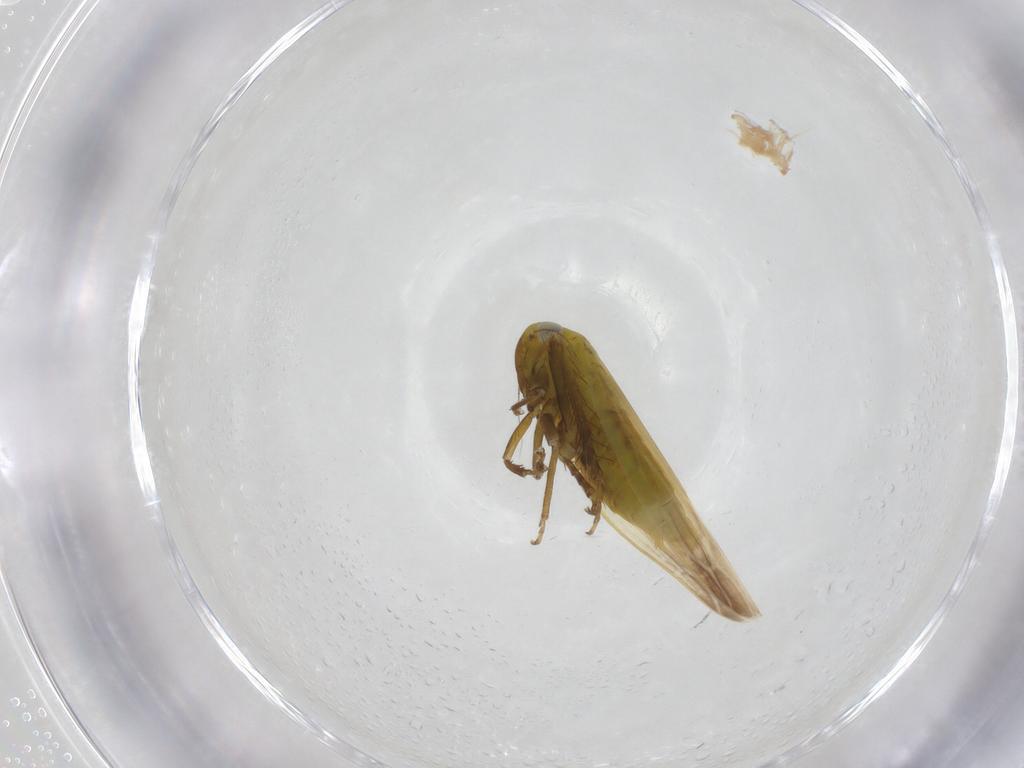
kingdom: Animalia
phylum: Arthropoda
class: Insecta
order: Hemiptera
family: Cicadellidae
